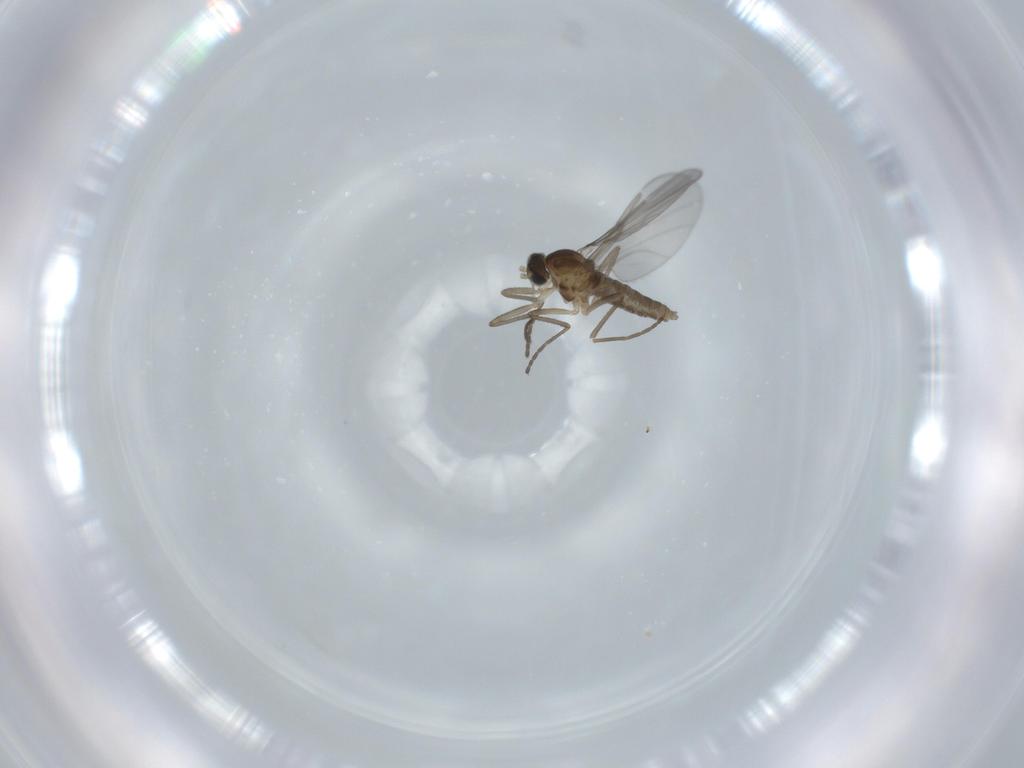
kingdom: Animalia
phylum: Arthropoda
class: Insecta
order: Diptera
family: Cecidomyiidae
